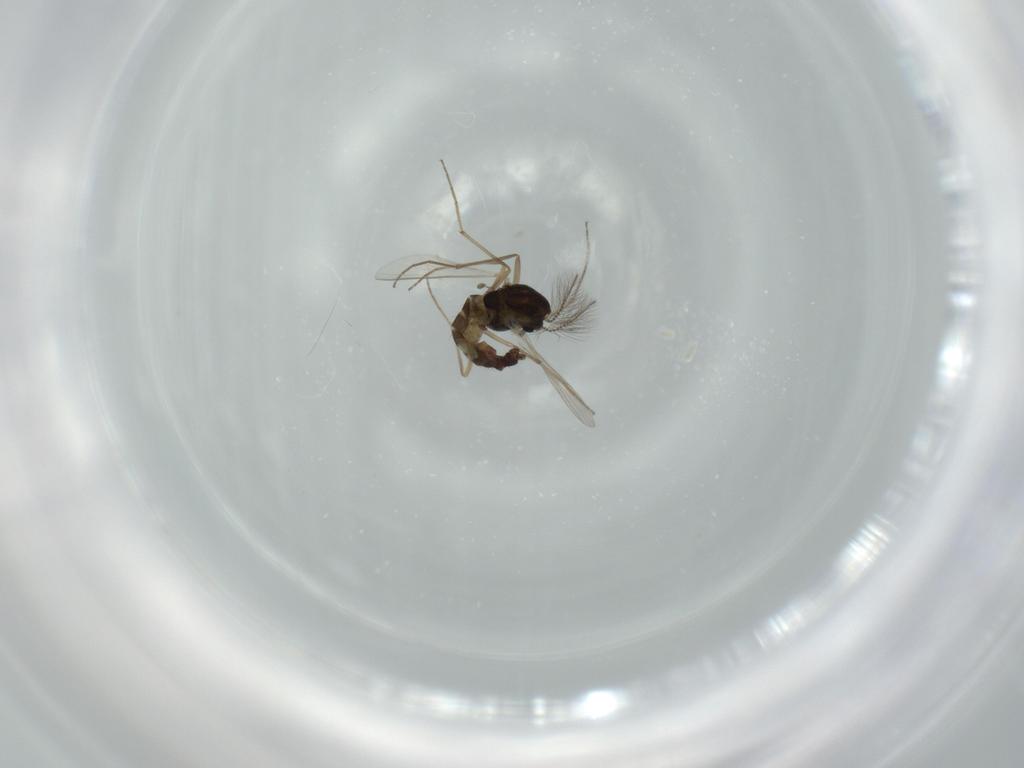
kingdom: Animalia
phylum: Arthropoda
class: Insecta
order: Diptera
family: Chironomidae
